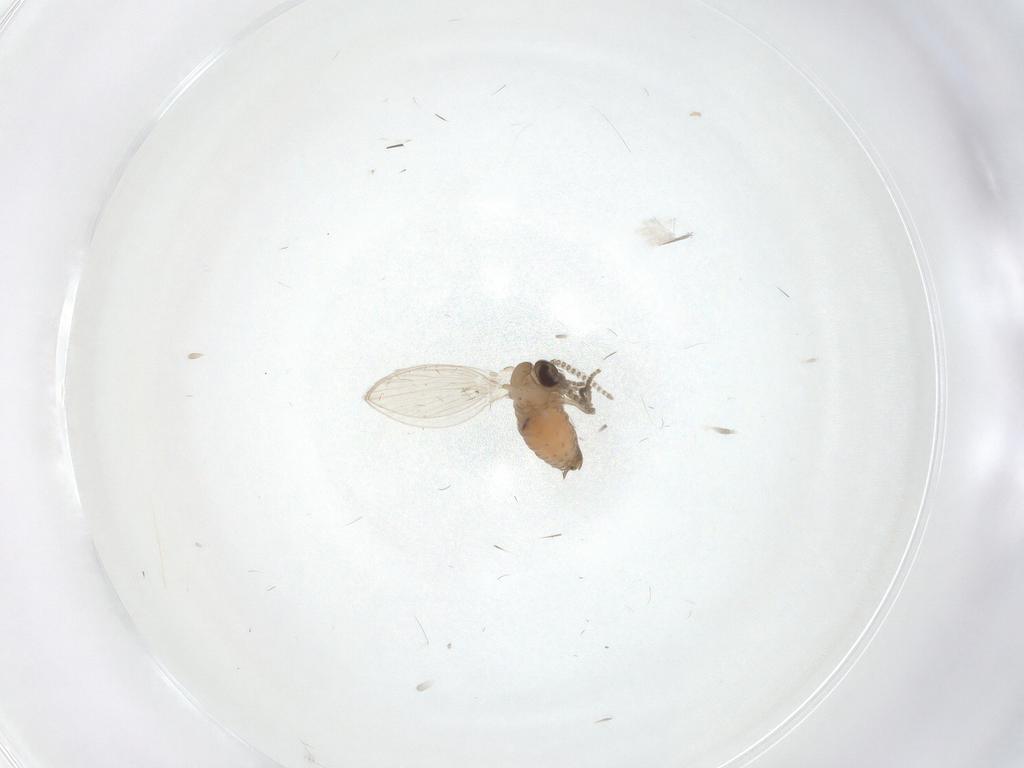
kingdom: Animalia
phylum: Arthropoda
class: Insecta
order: Diptera
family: Psychodidae
